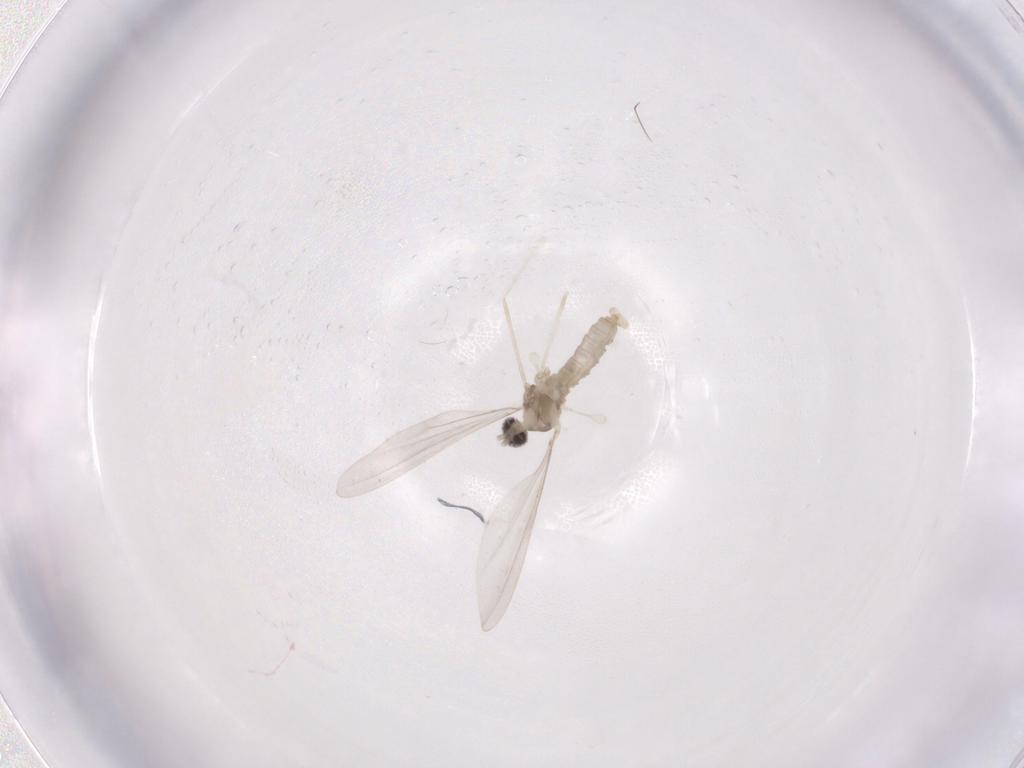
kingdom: Animalia
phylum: Arthropoda
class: Insecta
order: Diptera
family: Cecidomyiidae
